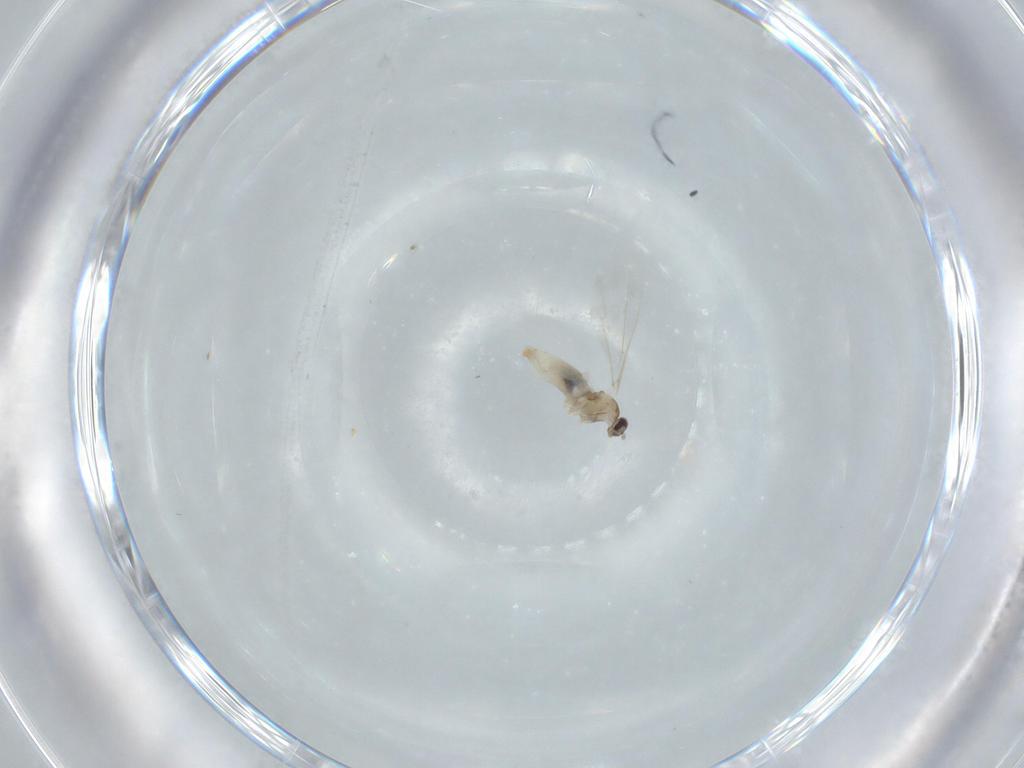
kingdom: Animalia
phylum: Arthropoda
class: Insecta
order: Diptera
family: Cecidomyiidae
